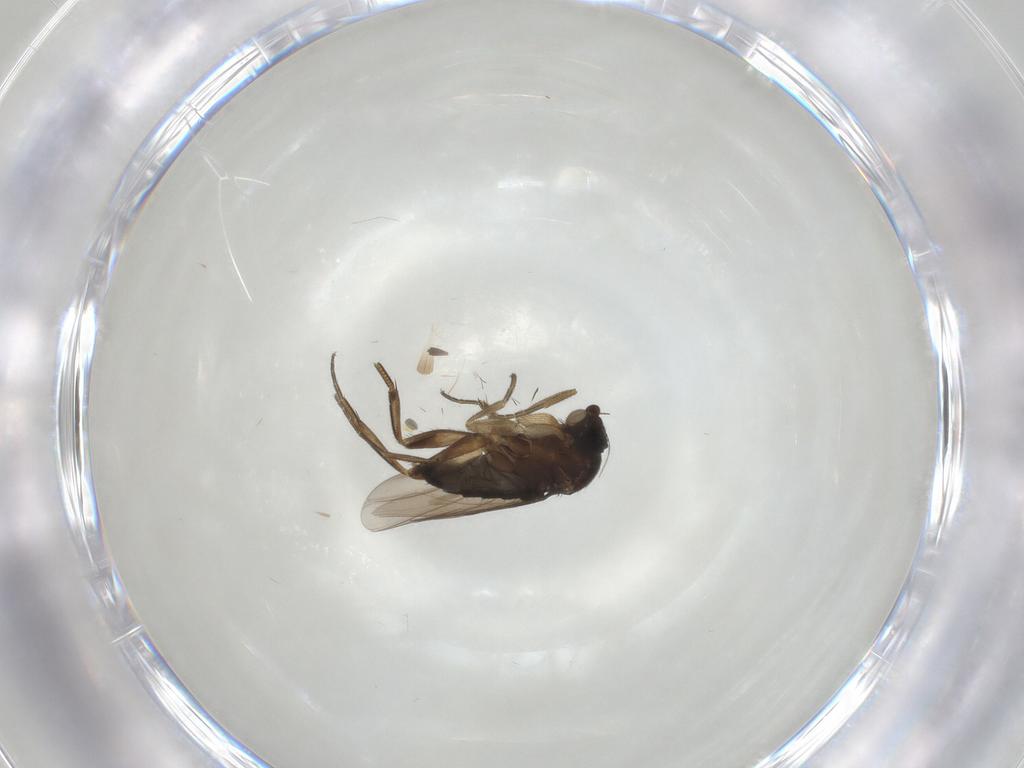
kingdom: Animalia
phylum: Arthropoda
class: Insecta
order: Diptera
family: Phoridae
